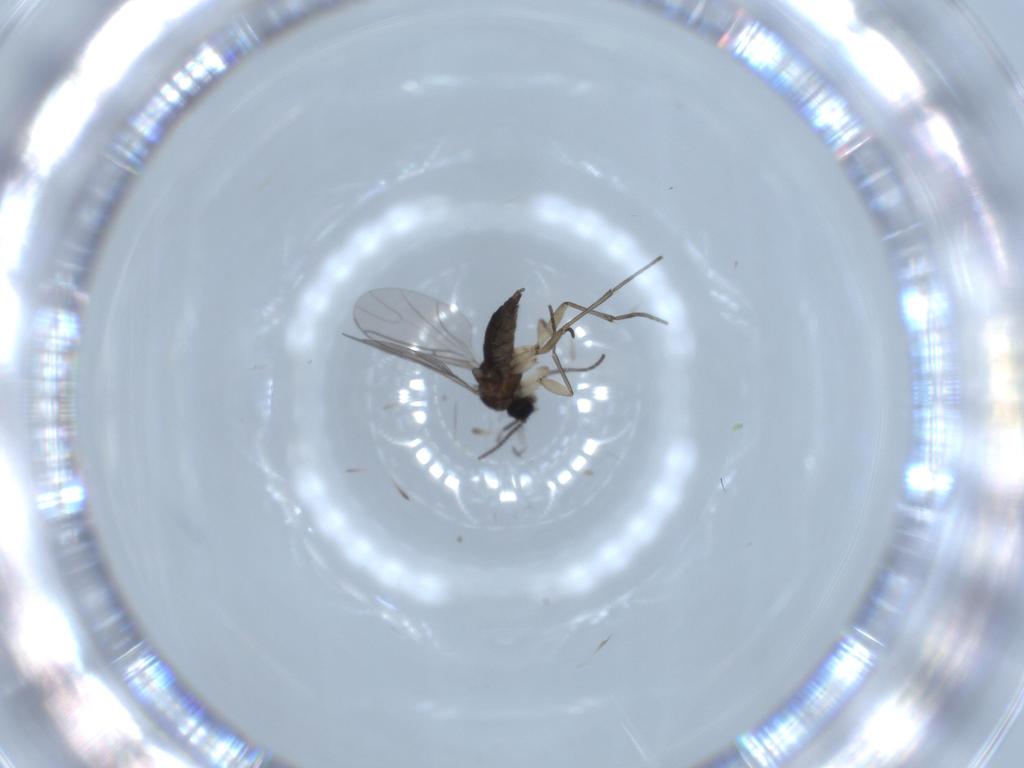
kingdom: Animalia
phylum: Arthropoda
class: Insecta
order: Diptera
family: Sciaridae
